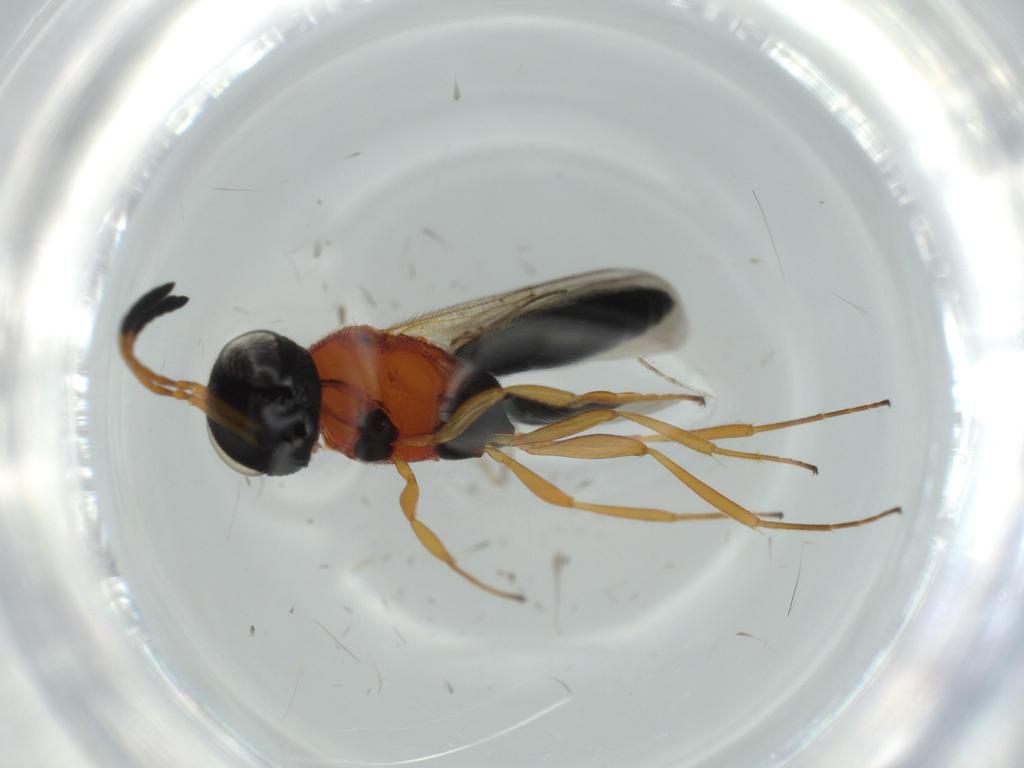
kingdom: Animalia
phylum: Arthropoda
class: Insecta
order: Hymenoptera
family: Scelionidae
